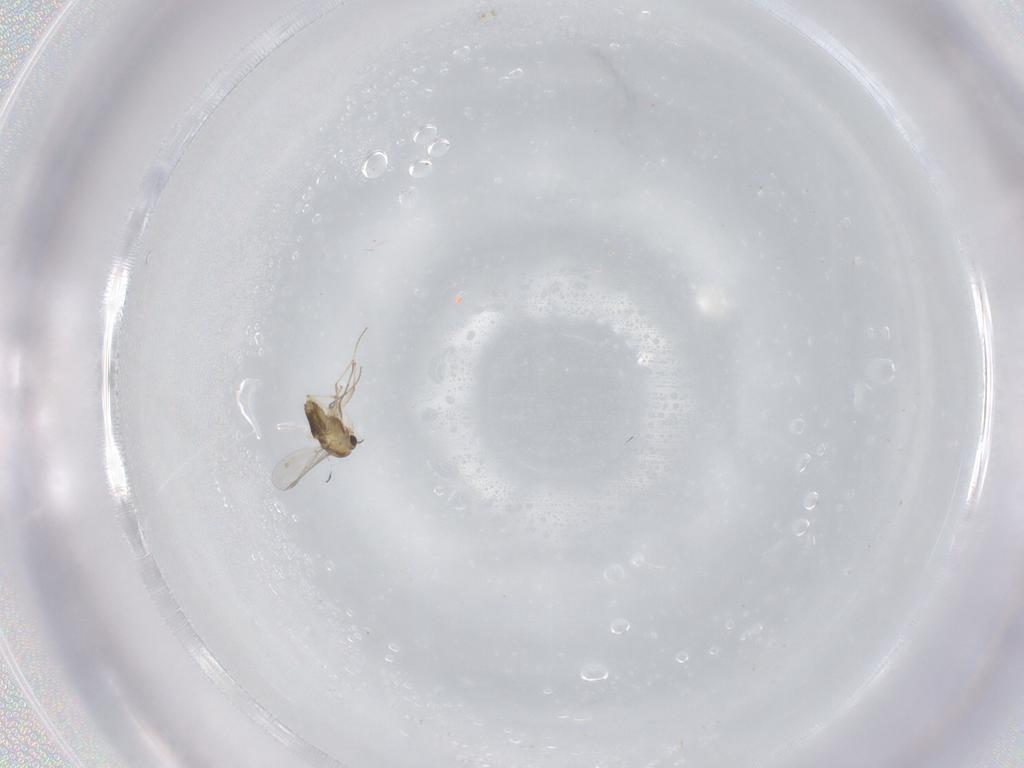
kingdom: Animalia
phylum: Arthropoda
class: Insecta
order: Diptera
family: Chironomidae
